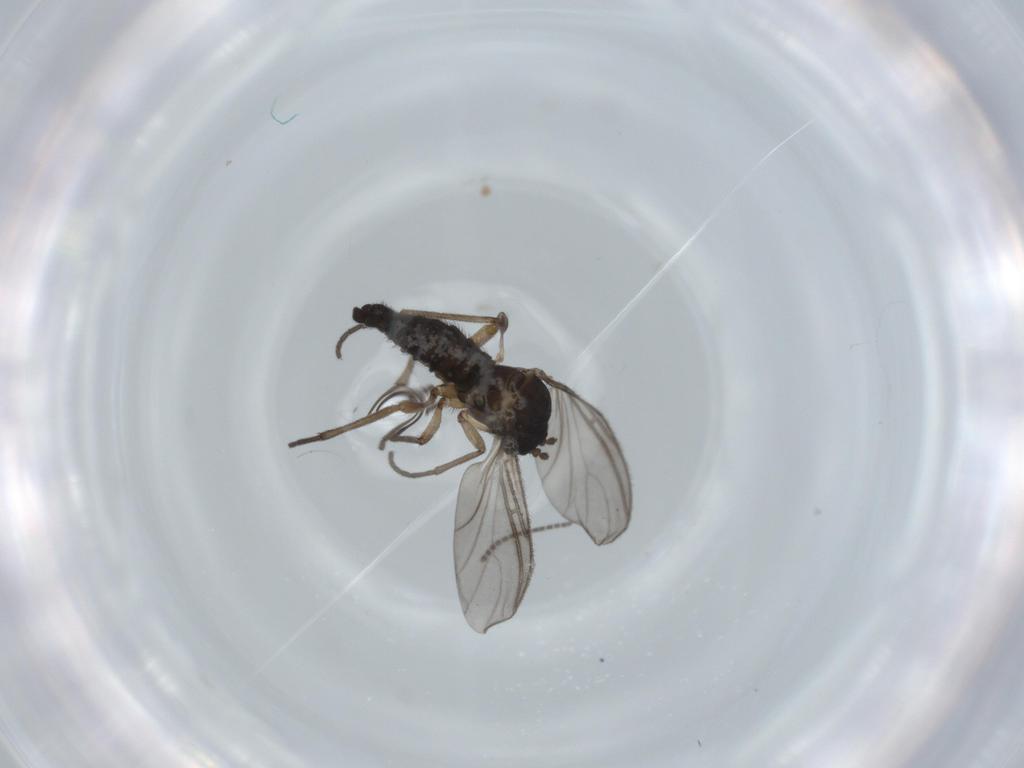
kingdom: Animalia
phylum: Arthropoda
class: Insecta
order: Diptera
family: Sciaridae
